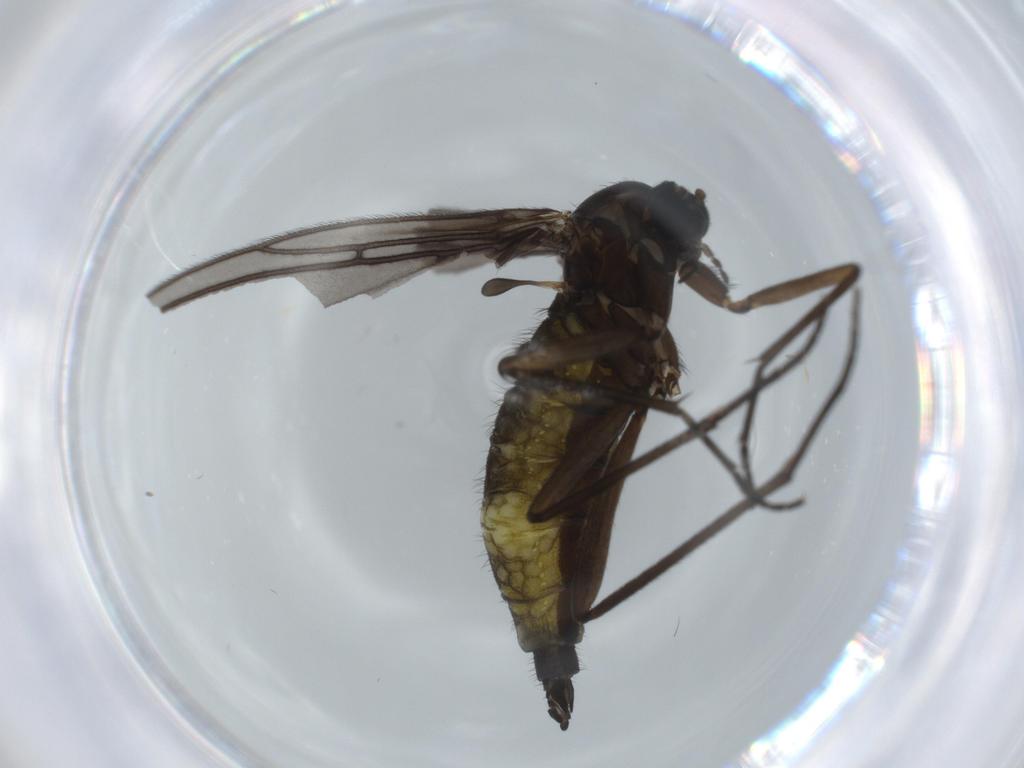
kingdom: Animalia
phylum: Arthropoda
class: Insecta
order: Diptera
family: Sciaridae
